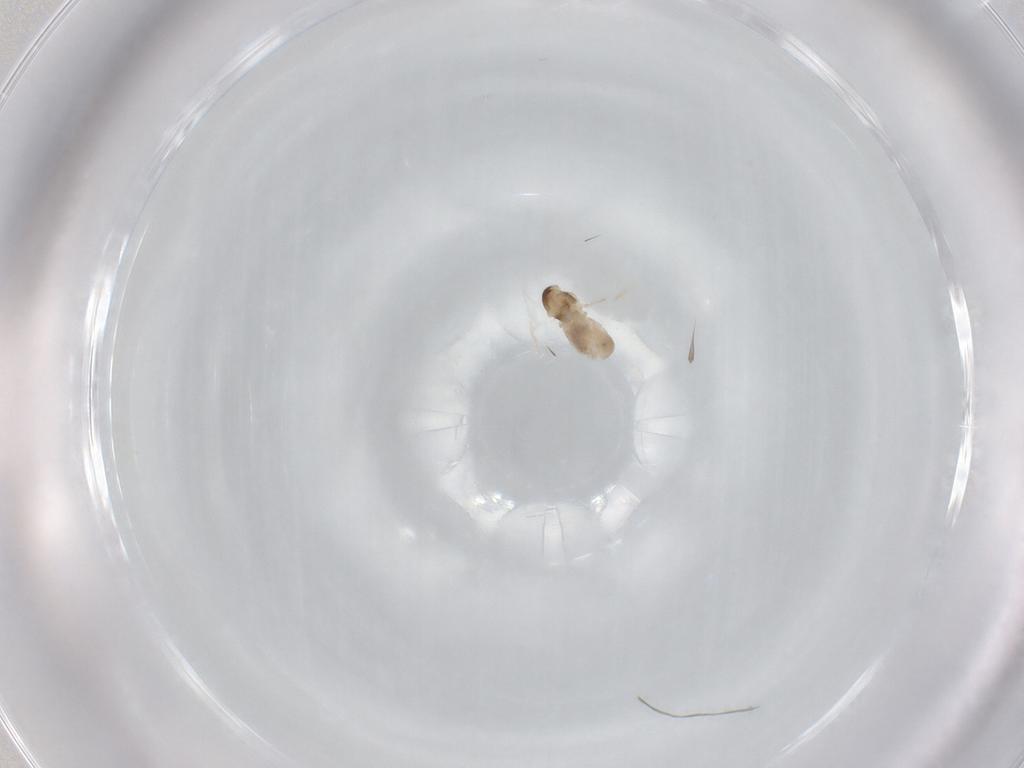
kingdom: Animalia
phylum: Arthropoda
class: Insecta
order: Diptera
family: Cecidomyiidae
